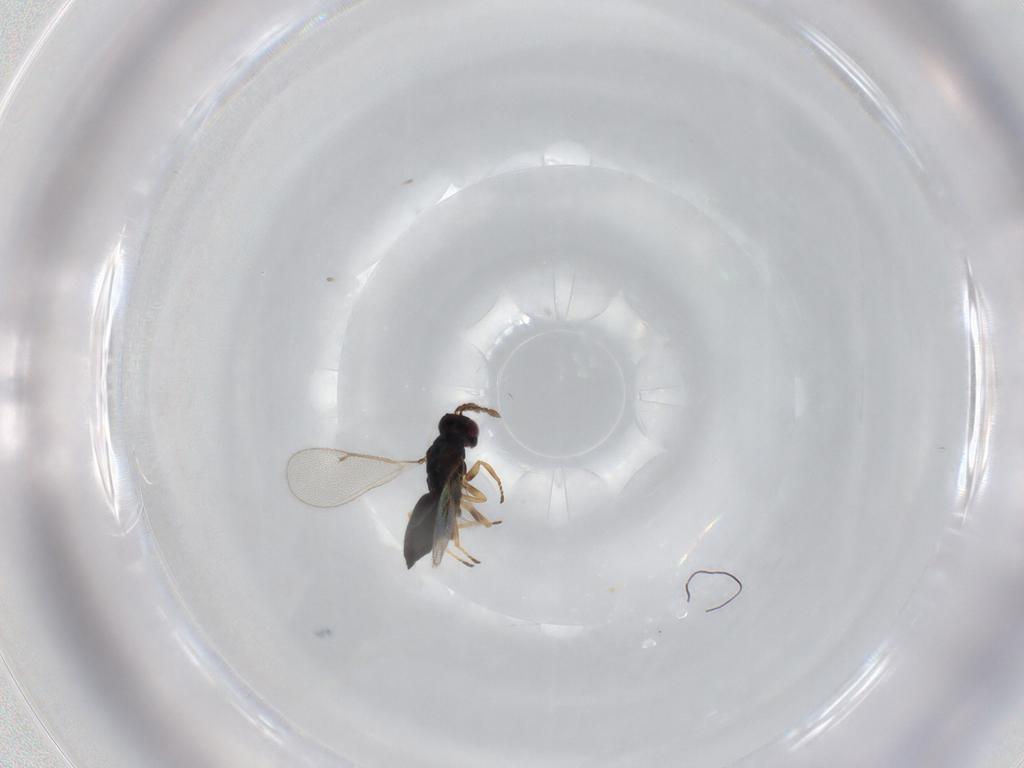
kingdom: Animalia
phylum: Arthropoda
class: Insecta
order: Hymenoptera
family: Eulophidae
